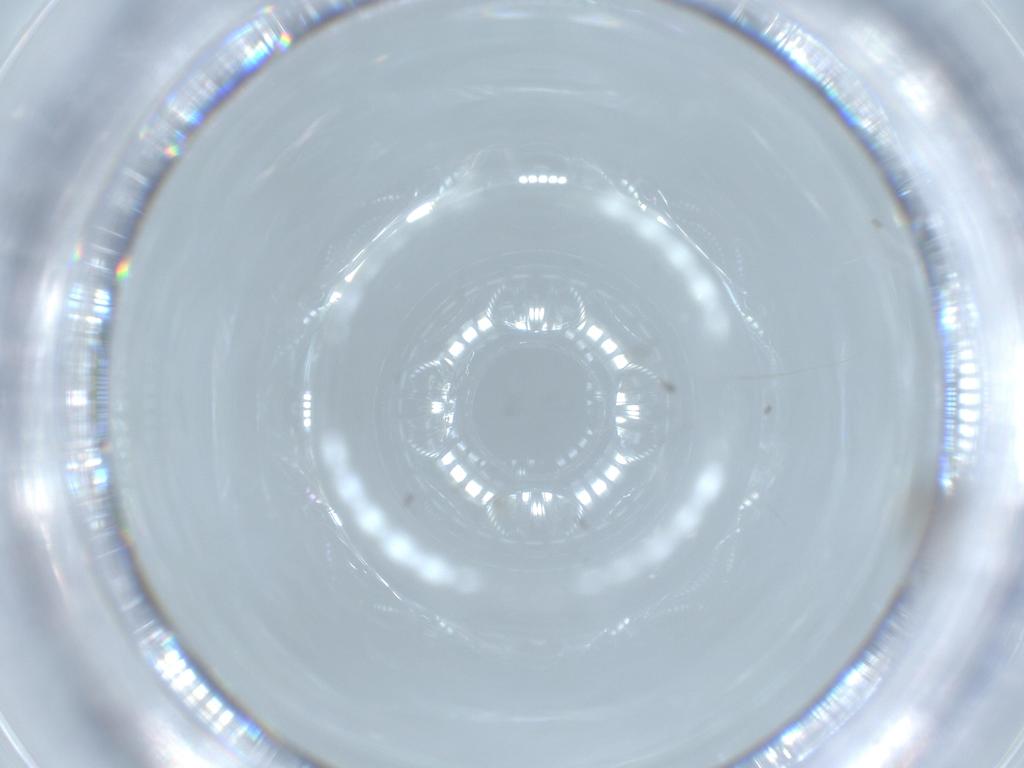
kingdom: Animalia
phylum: Arthropoda
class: Insecta
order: Diptera
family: Cecidomyiidae
